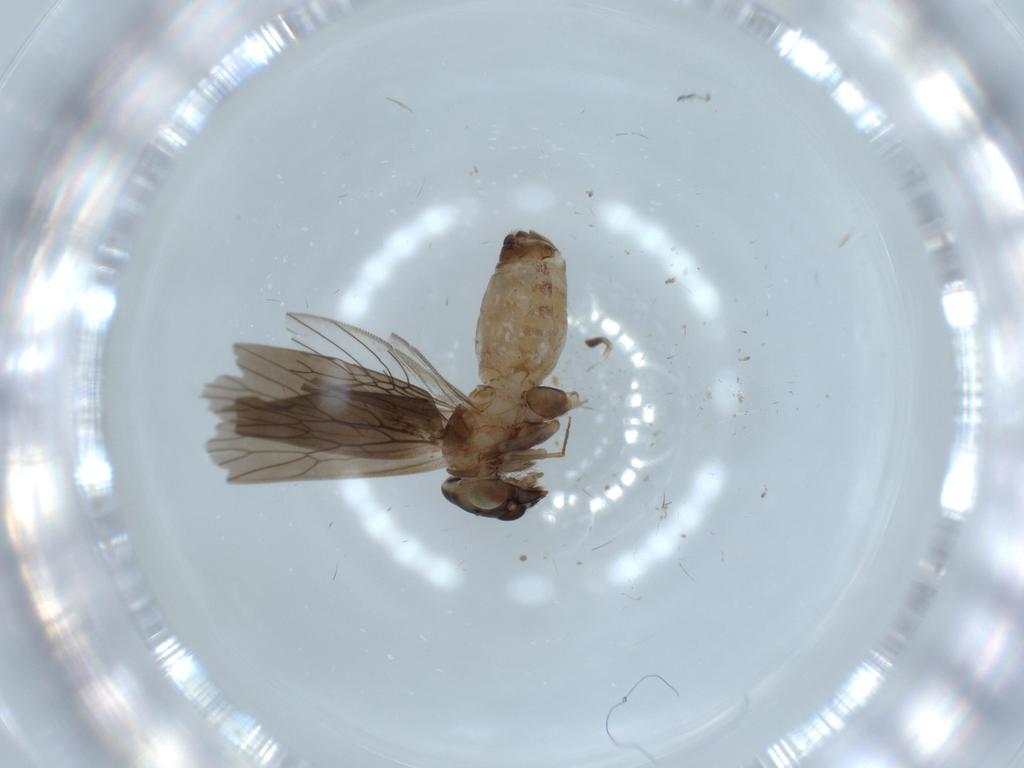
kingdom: Animalia
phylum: Arthropoda
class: Insecta
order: Psocodea
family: Lepidopsocidae
